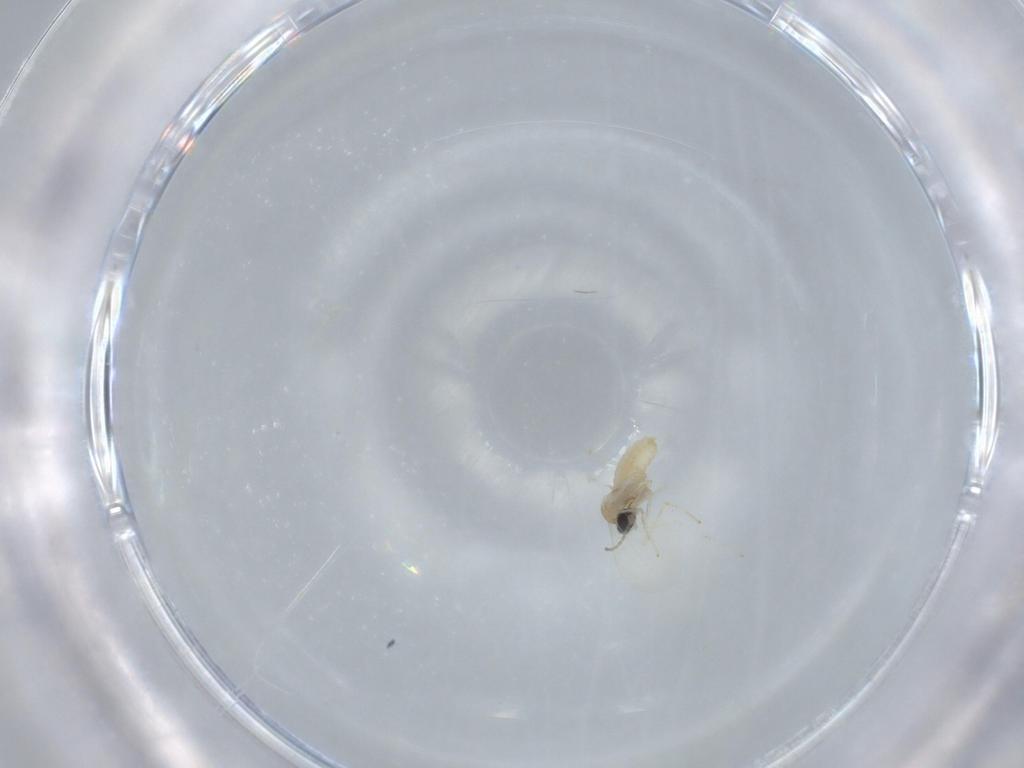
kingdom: Animalia
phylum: Arthropoda
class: Insecta
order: Diptera
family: Cecidomyiidae
